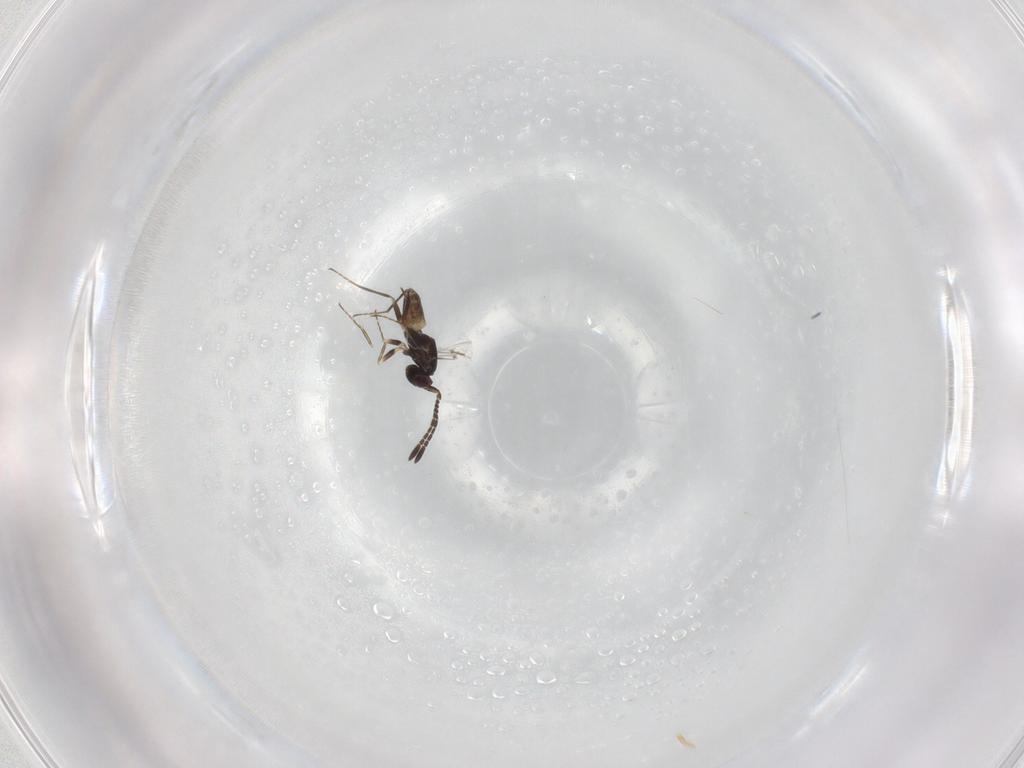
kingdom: Animalia
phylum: Arthropoda
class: Insecta
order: Hymenoptera
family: Mymaridae
